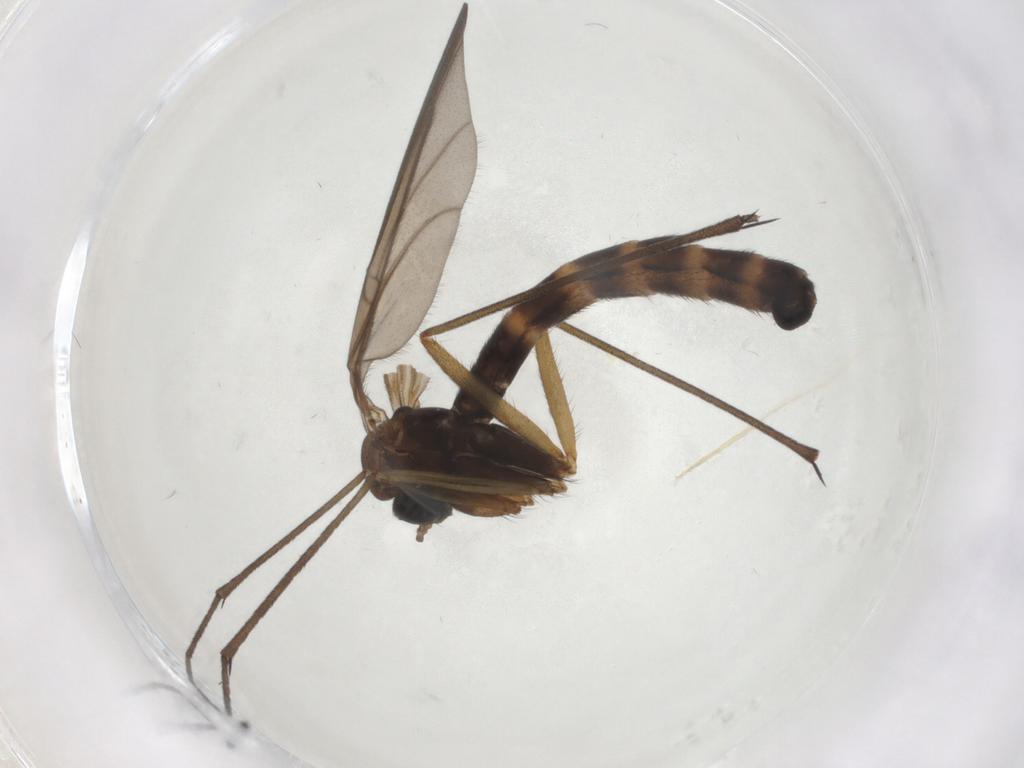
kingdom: Animalia
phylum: Arthropoda
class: Insecta
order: Diptera
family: Ditomyiidae
